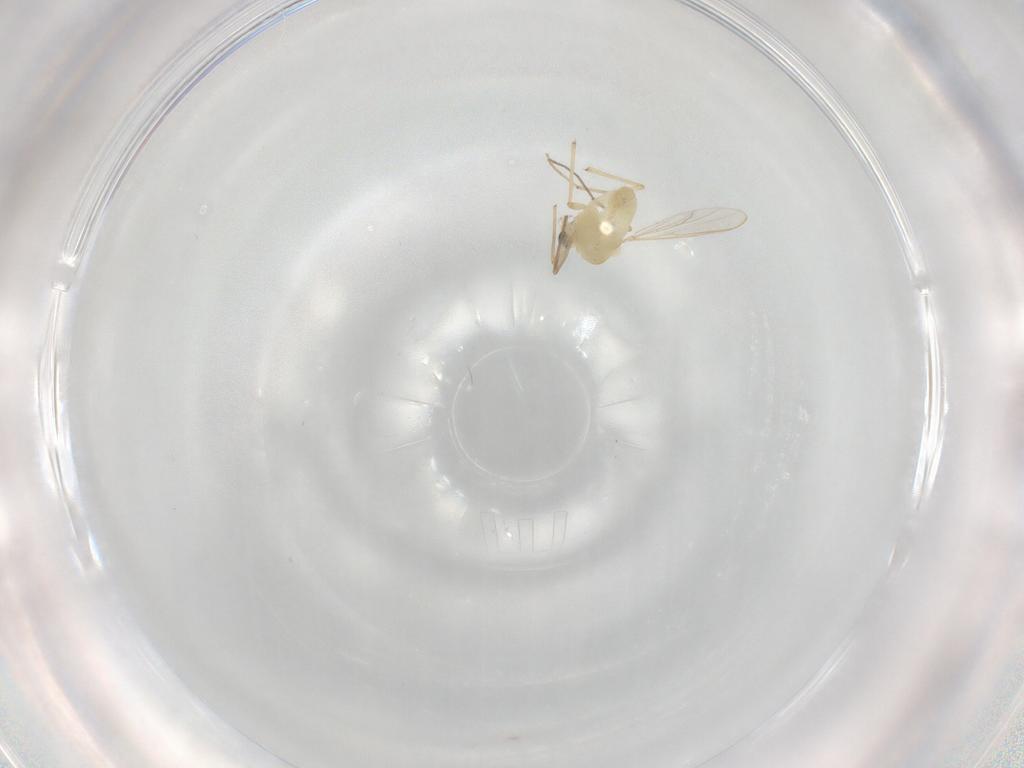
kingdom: Animalia
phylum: Arthropoda
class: Insecta
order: Diptera
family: Chironomidae
